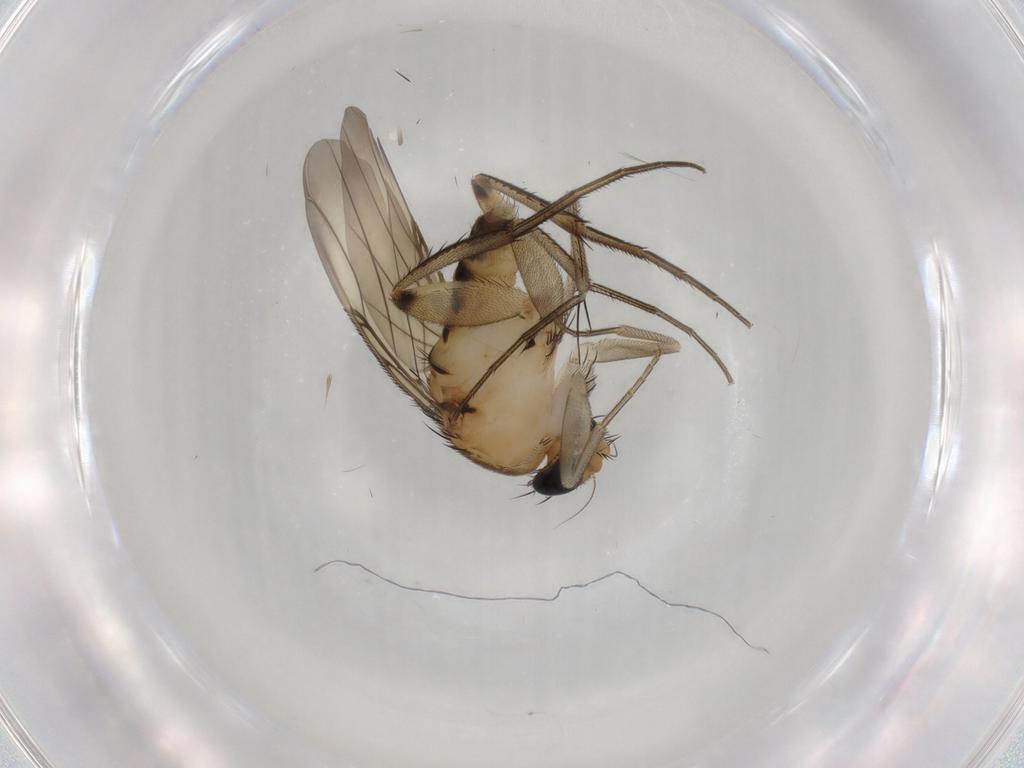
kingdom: Animalia
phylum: Arthropoda
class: Insecta
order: Diptera
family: Phoridae
